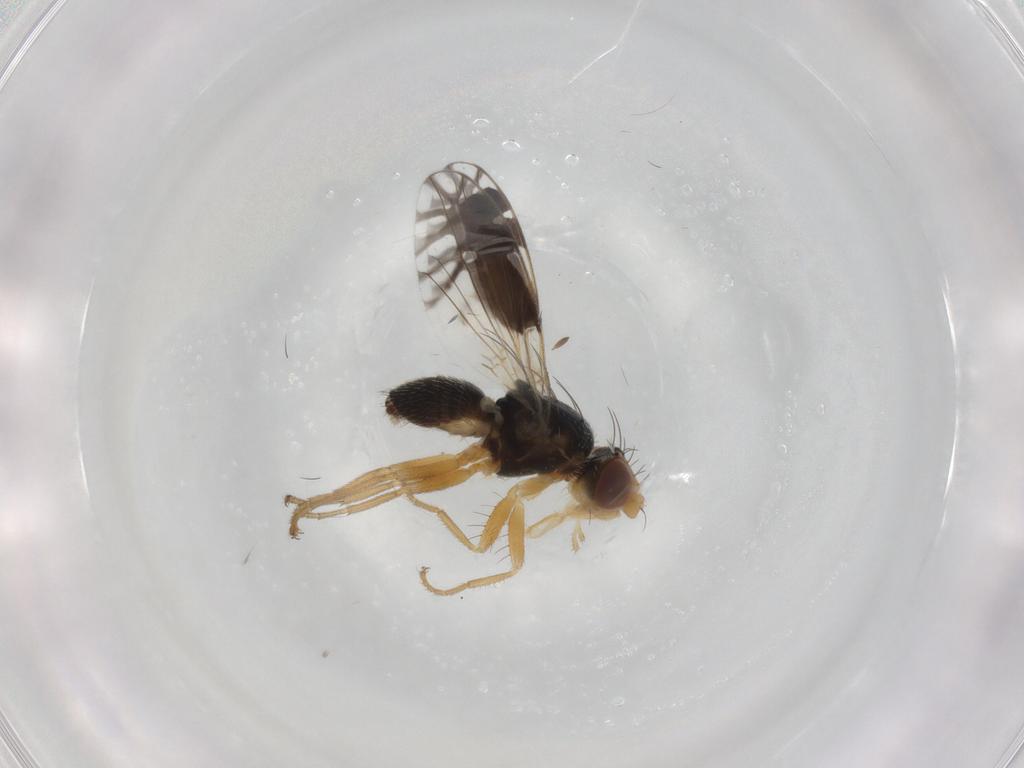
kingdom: Animalia
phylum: Arthropoda
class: Insecta
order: Diptera
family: Tephritidae
